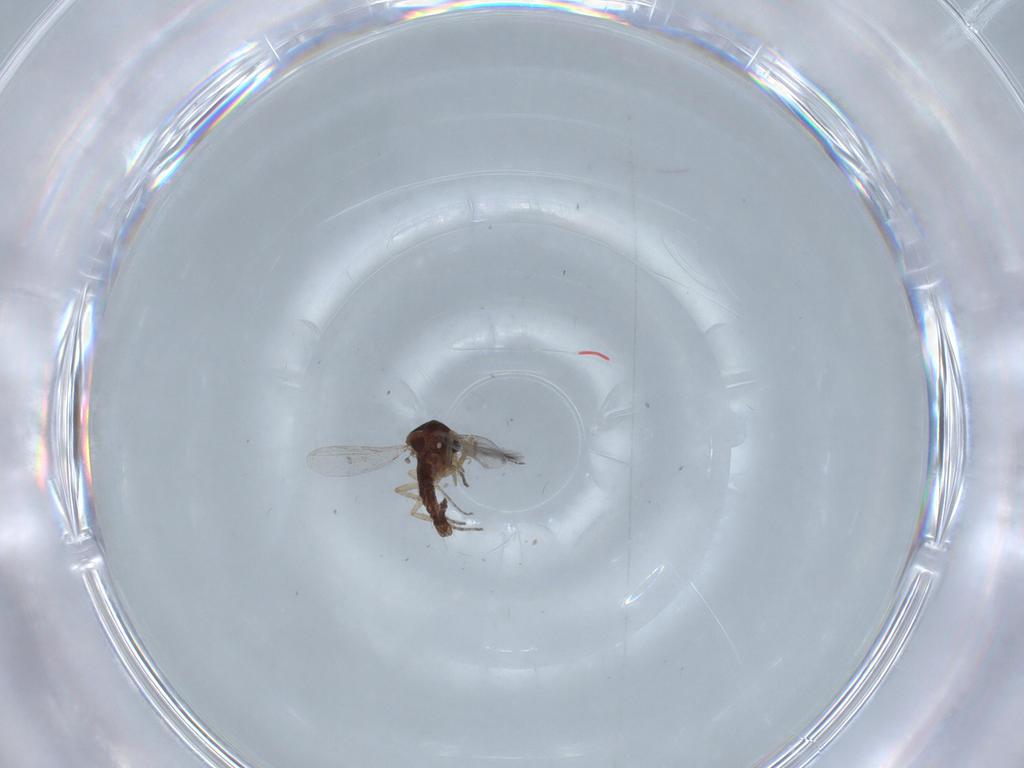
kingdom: Animalia
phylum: Arthropoda
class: Insecta
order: Diptera
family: Ceratopogonidae
